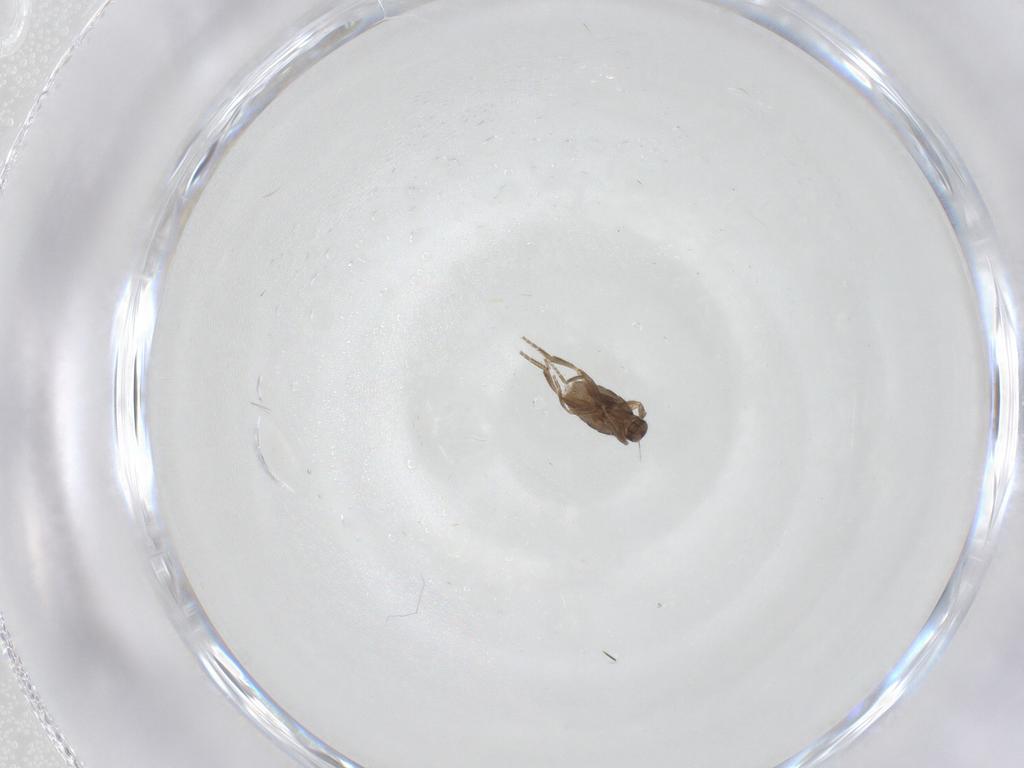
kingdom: Animalia
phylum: Arthropoda
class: Insecta
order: Diptera
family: Phoridae
